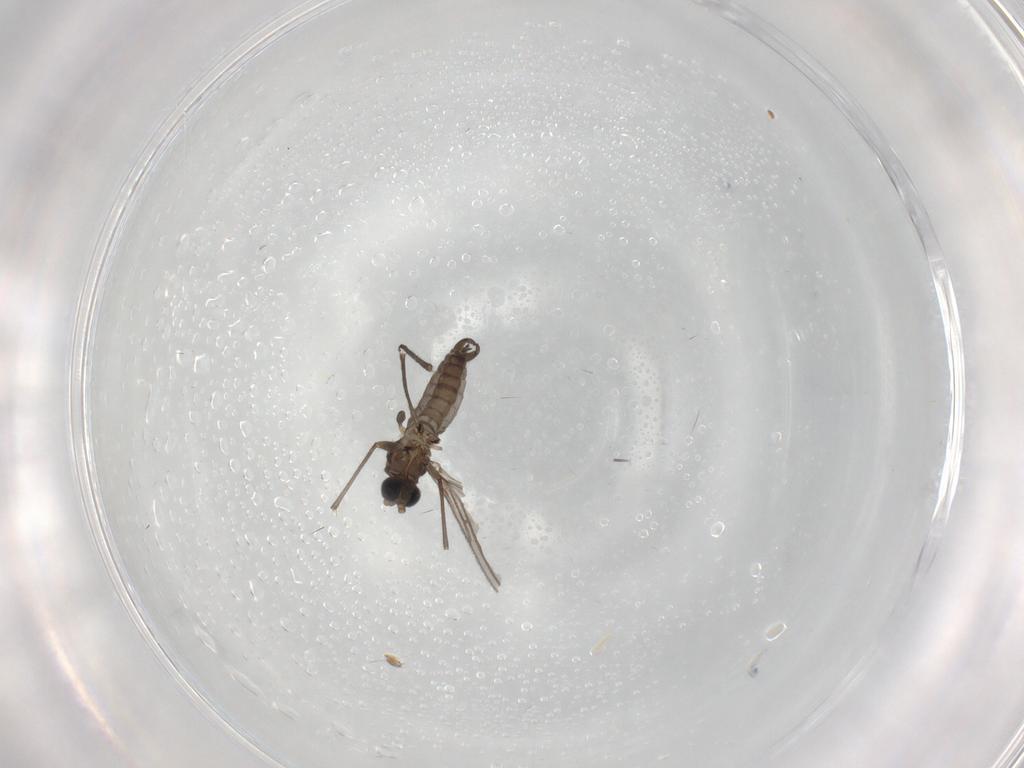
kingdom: Animalia
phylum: Arthropoda
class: Insecta
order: Diptera
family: Sciaridae
